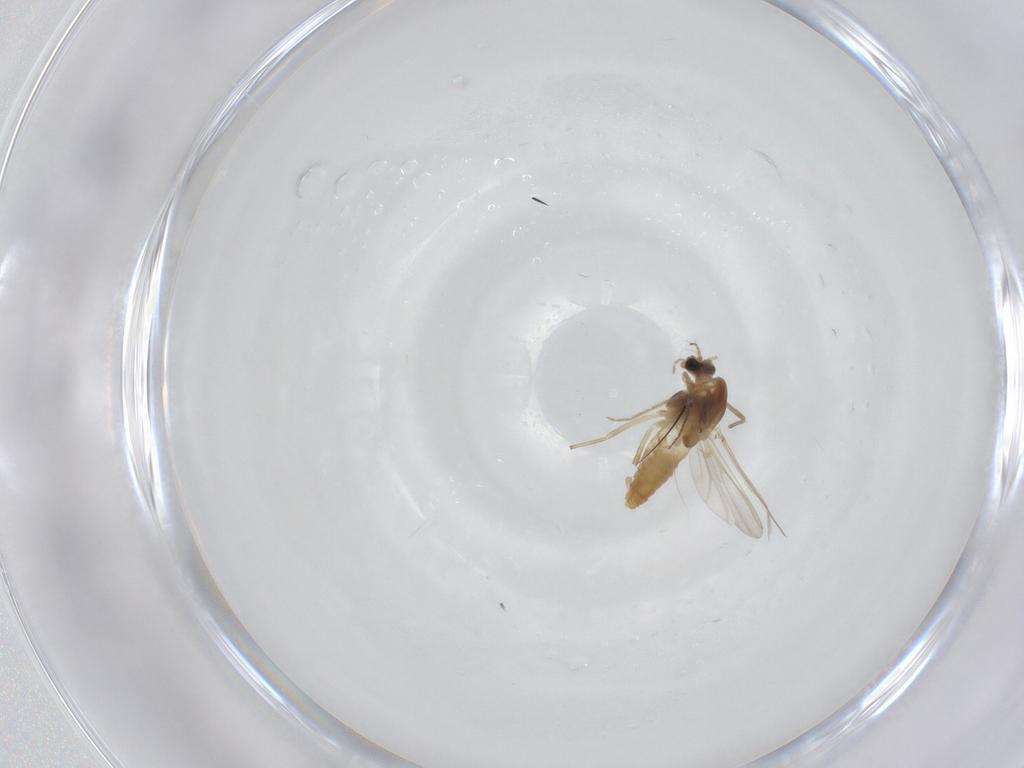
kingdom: Animalia
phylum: Arthropoda
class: Insecta
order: Diptera
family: Chironomidae
